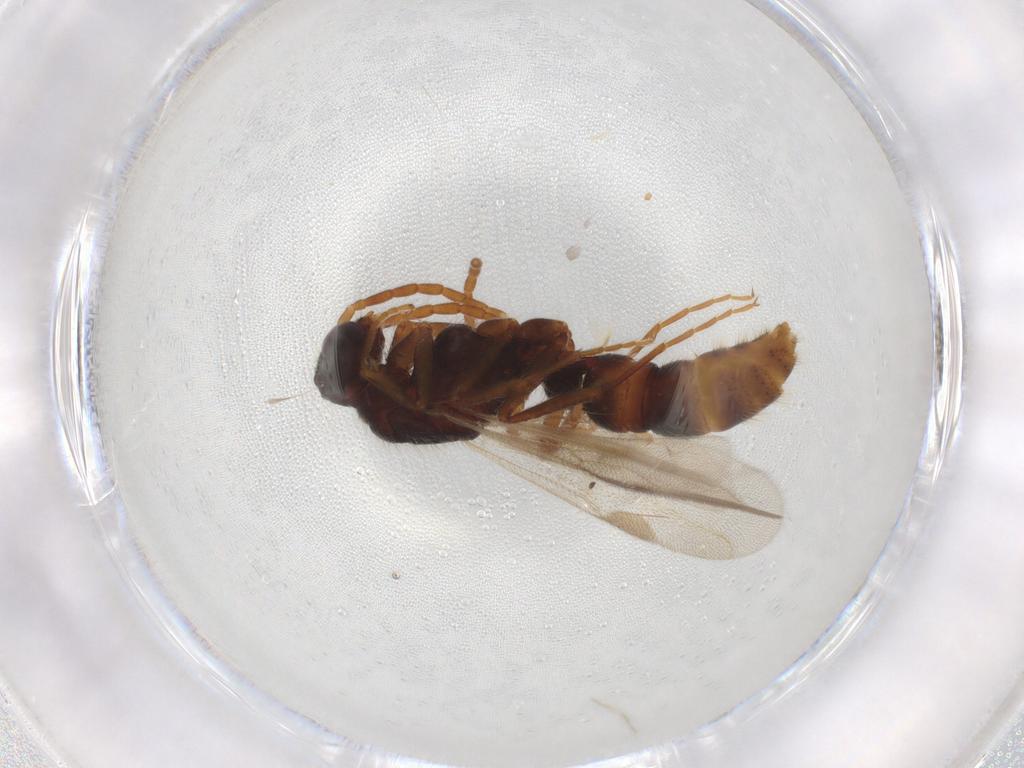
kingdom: Animalia
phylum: Arthropoda
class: Insecta
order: Hymenoptera
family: Formicidae
